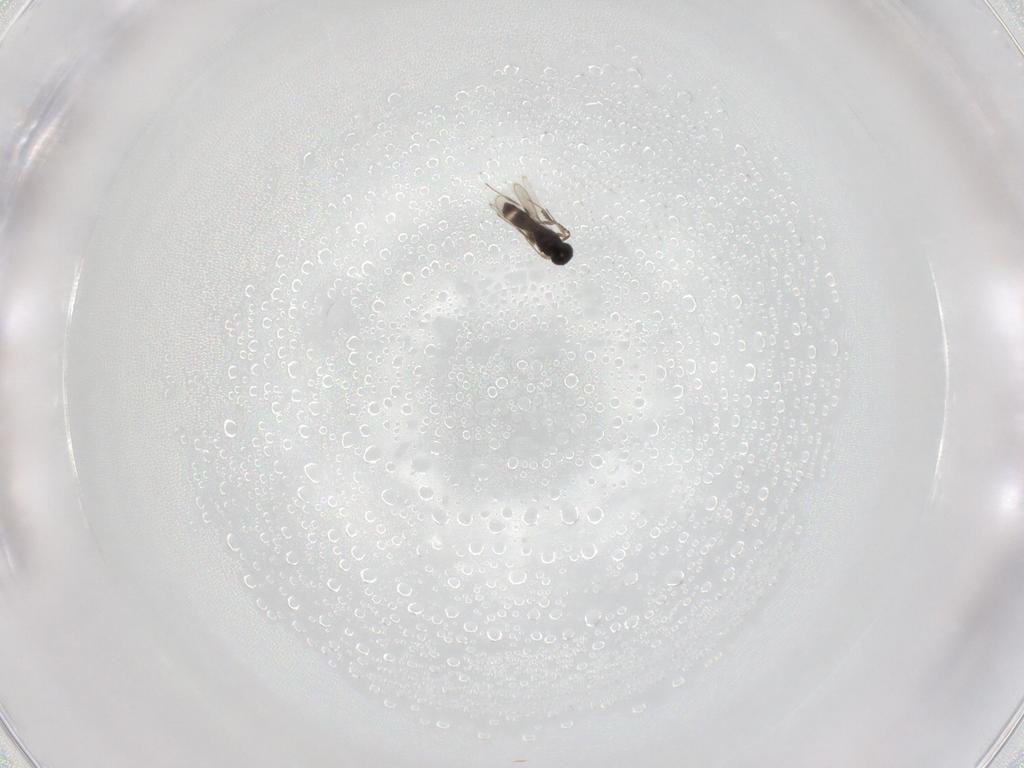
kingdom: Animalia
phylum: Arthropoda
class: Insecta
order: Hymenoptera
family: Scelionidae
